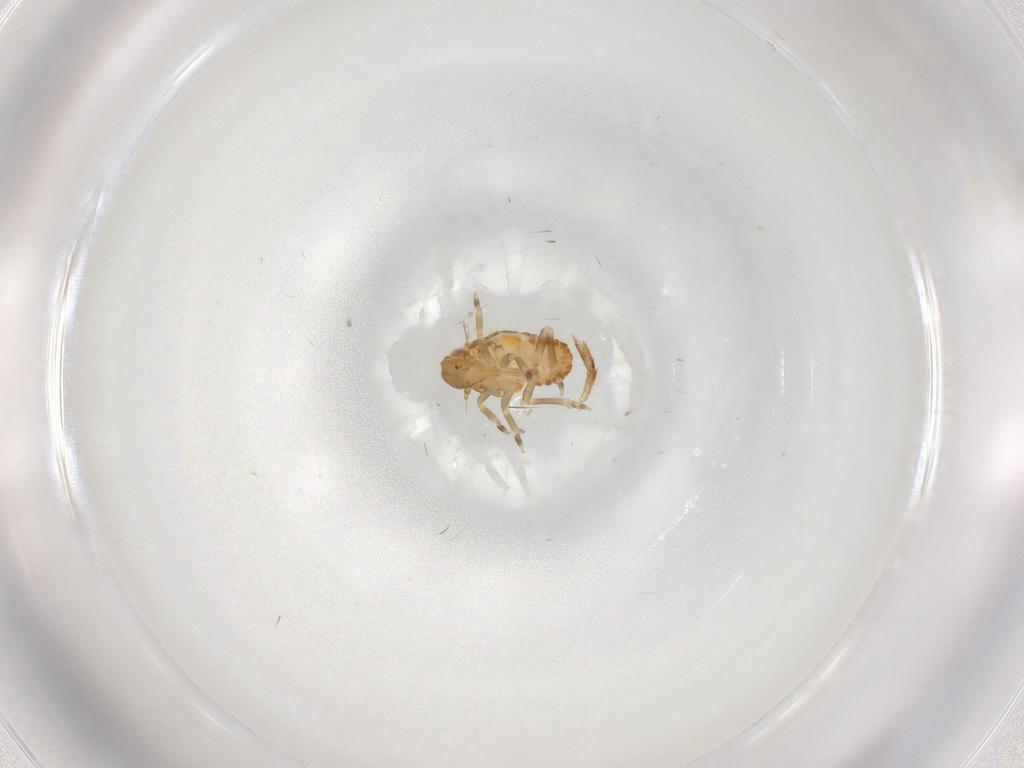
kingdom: Animalia
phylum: Arthropoda
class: Insecta
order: Hemiptera
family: Flatidae
